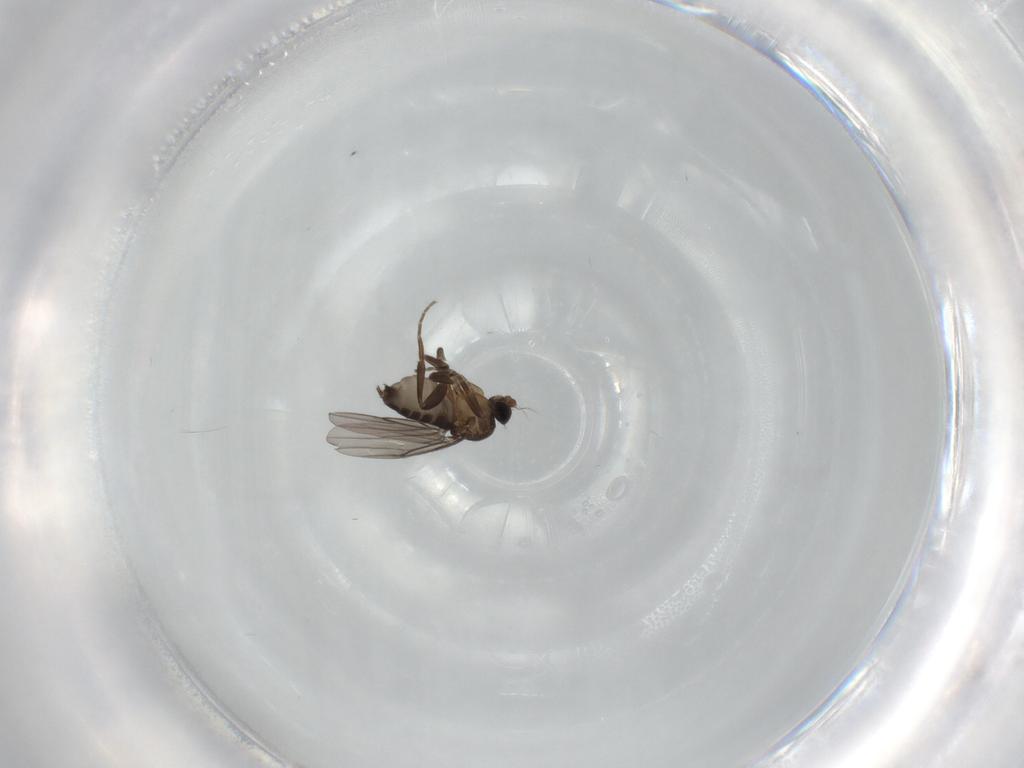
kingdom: Animalia
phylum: Arthropoda
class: Insecta
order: Diptera
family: Phoridae
